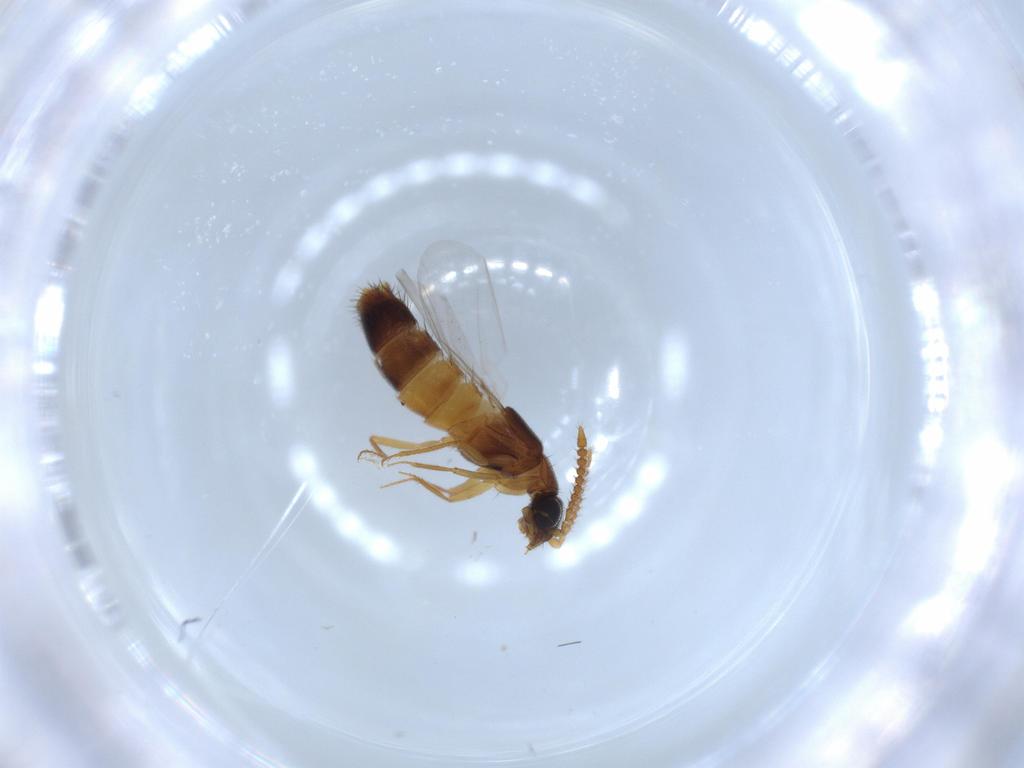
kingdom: Animalia
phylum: Arthropoda
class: Insecta
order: Coleoptera
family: Staphylinidae
